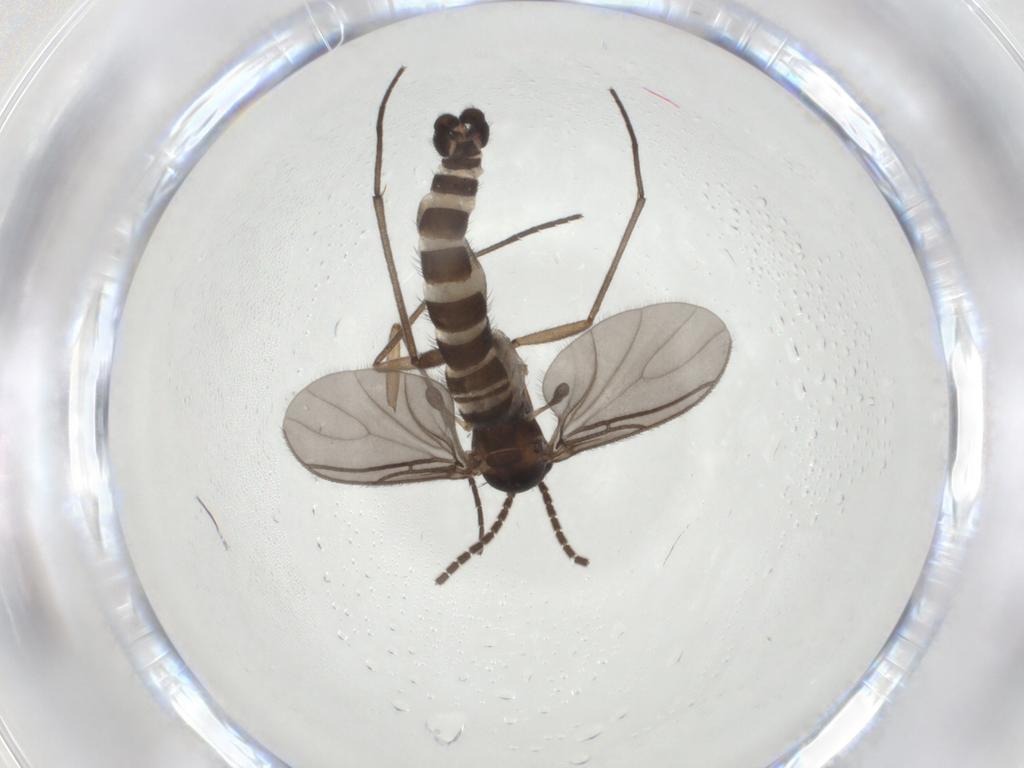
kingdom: Animalia
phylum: Arthropoda
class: Insecta
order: Diptera
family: Sciaridae
